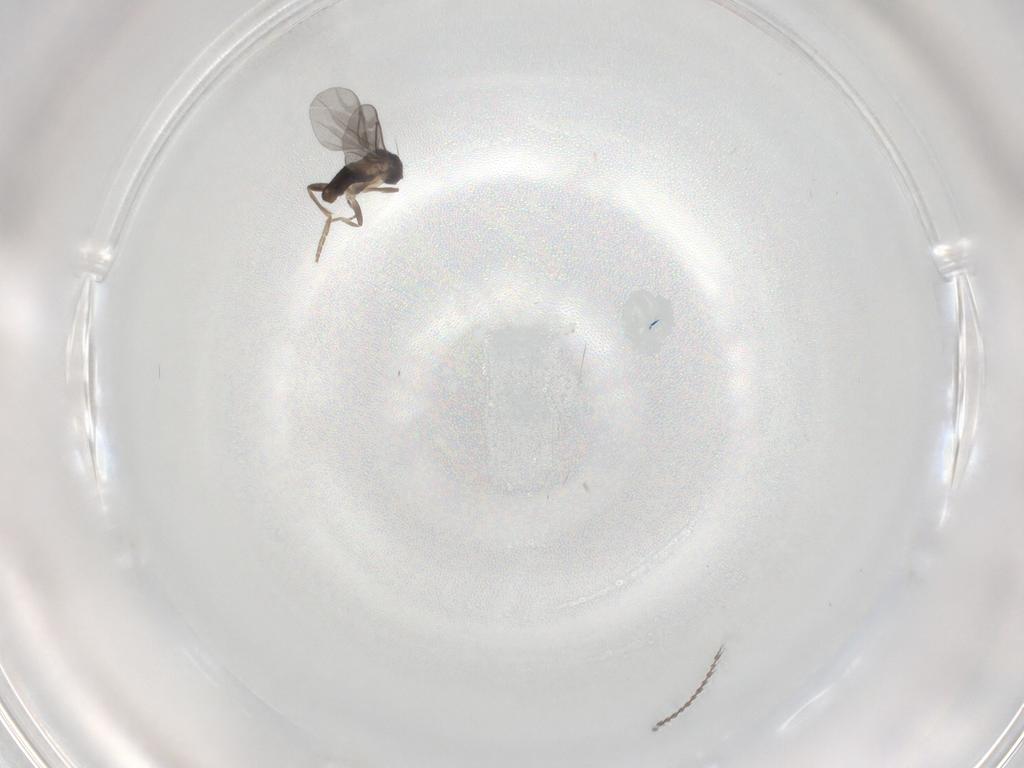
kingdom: Animalia
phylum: Arthropoda
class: Insecta
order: Diptera
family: Cecidomyiidae
